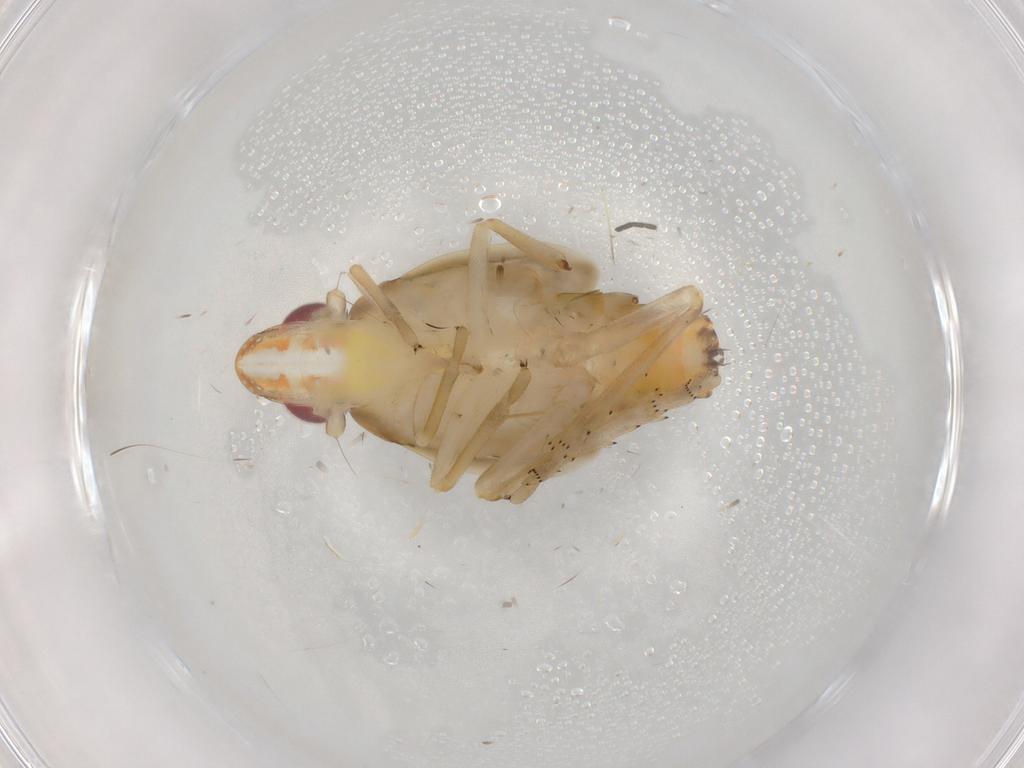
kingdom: Animalia
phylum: Arthropoda
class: Insecta
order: Hemiptera
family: Tropiduchidae
